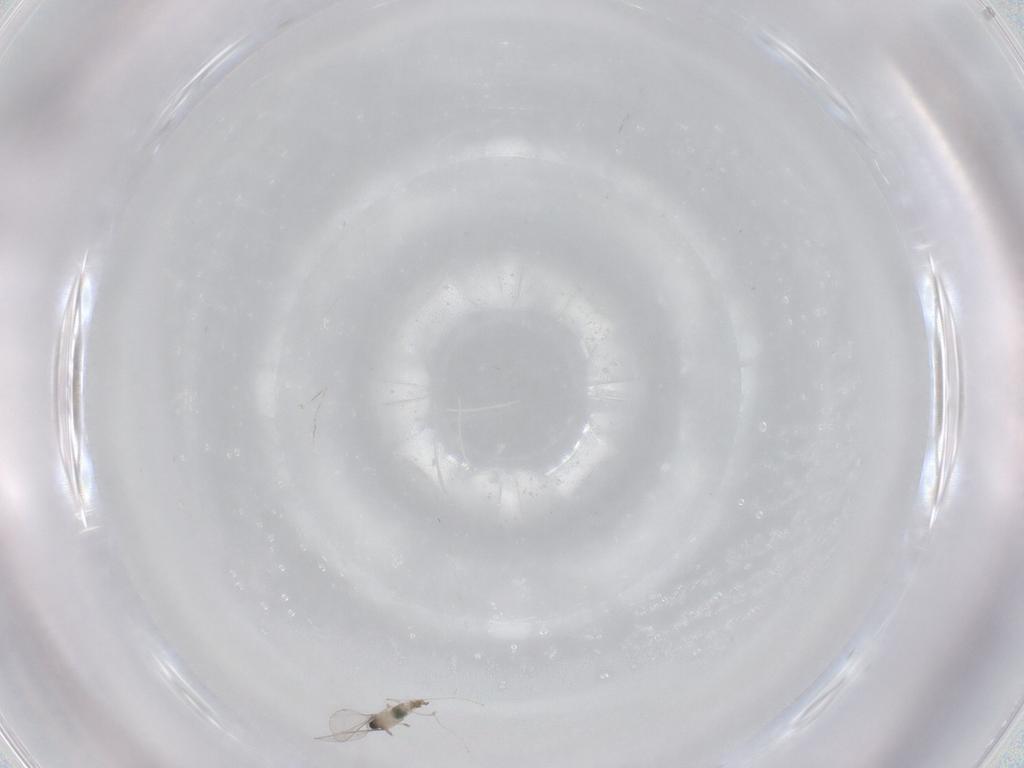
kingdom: Animalia
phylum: Arthropoda
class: Insecta
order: Diptera
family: Cecidomyiidae
